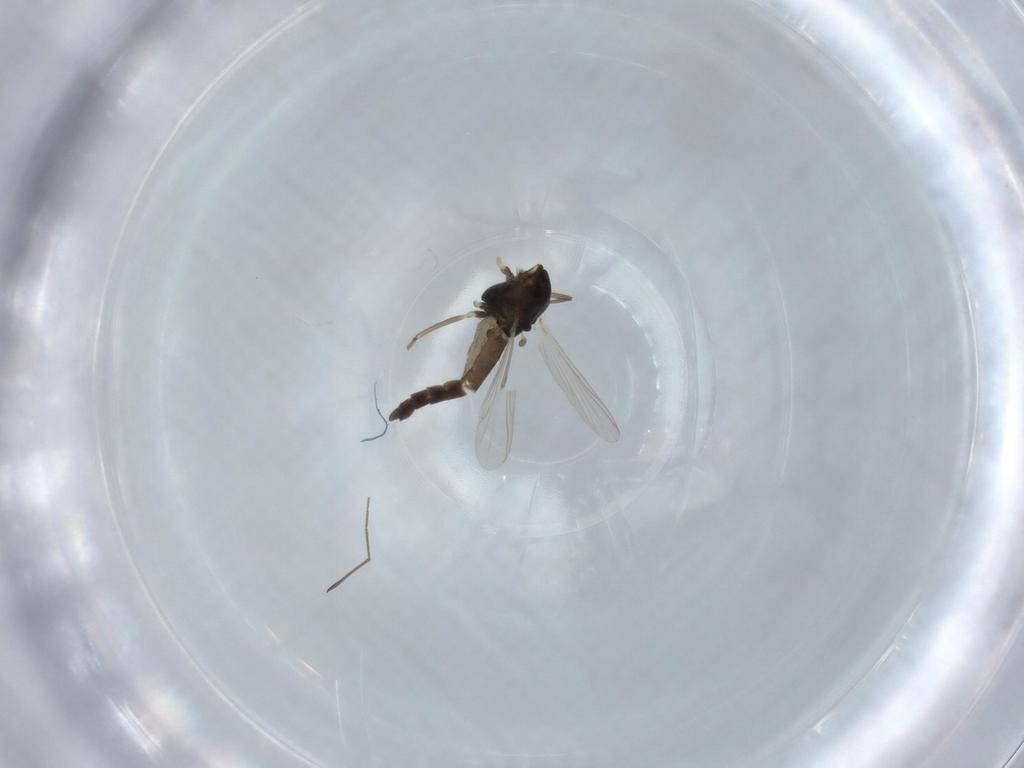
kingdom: Animalia
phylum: Arthropoda
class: Insecta
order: Diptera
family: Chironomidae
